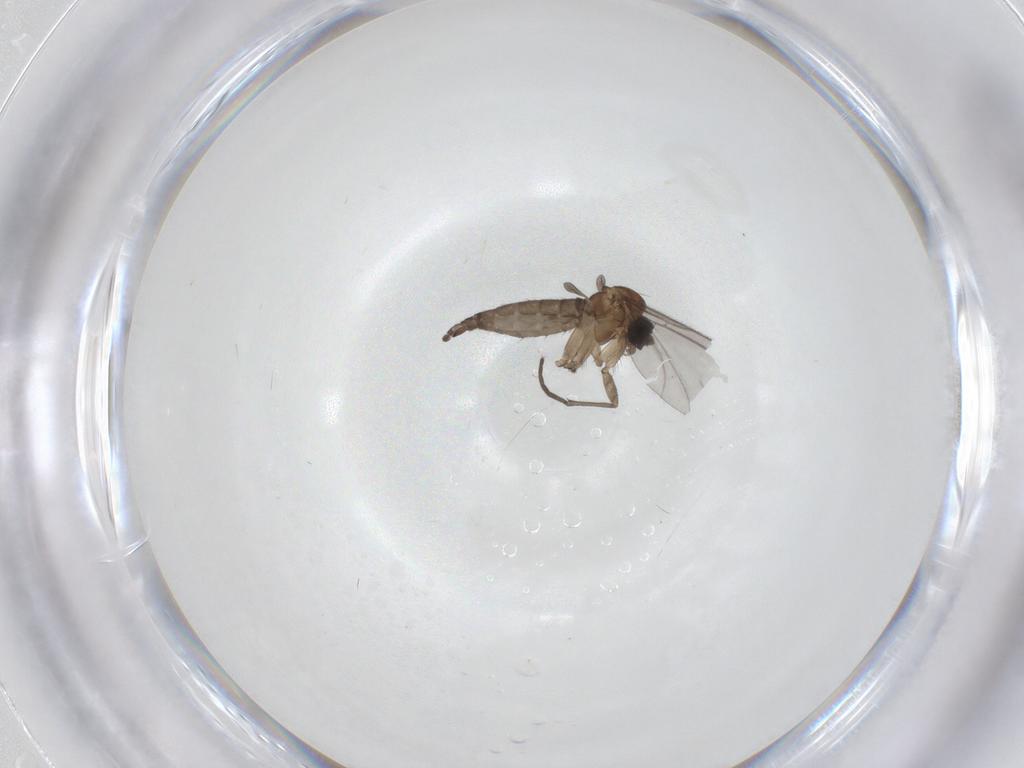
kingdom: Animalia
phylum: Arthropoda
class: Insecta
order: Diptera
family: Sciaridae
